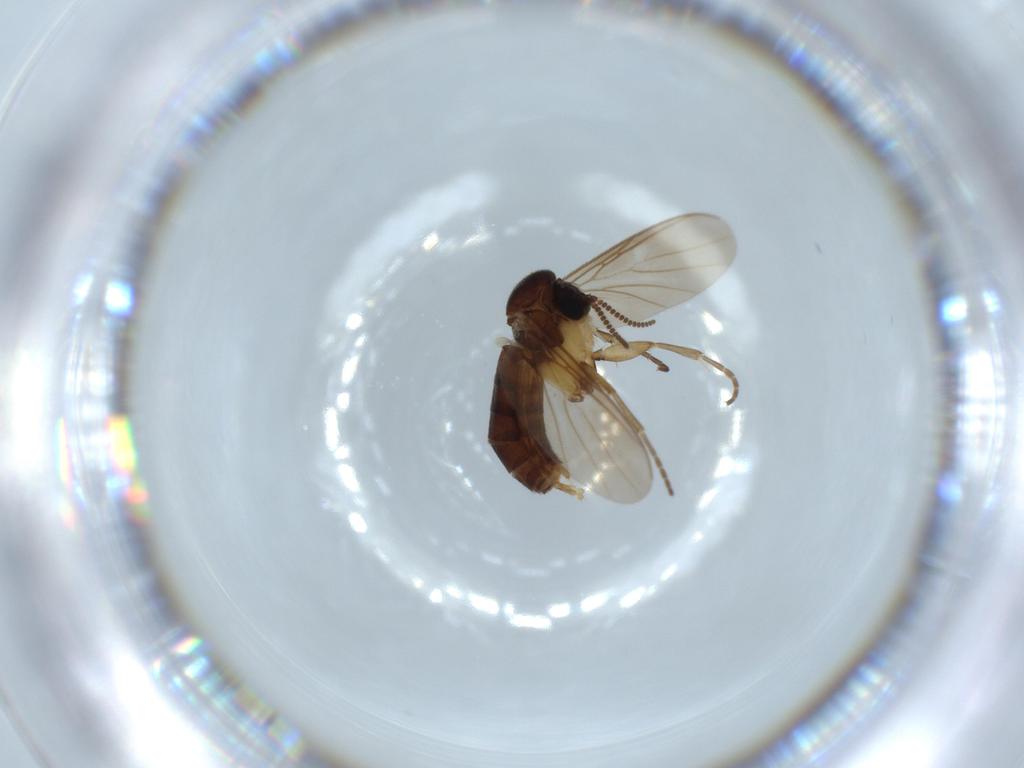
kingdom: Animalia
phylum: Arthropoda
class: Insecta
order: Diptera
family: Mycetophilidae
